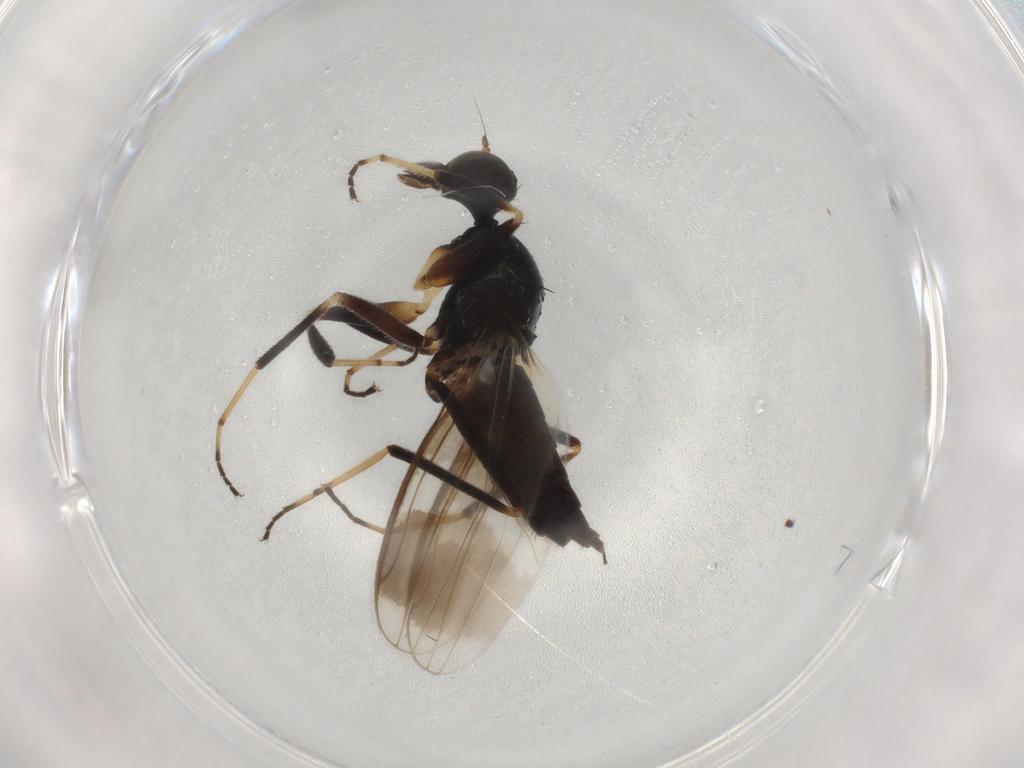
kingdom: Animalia
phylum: Arthropoda
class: Insecta
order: Diptera
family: Hybotidae
